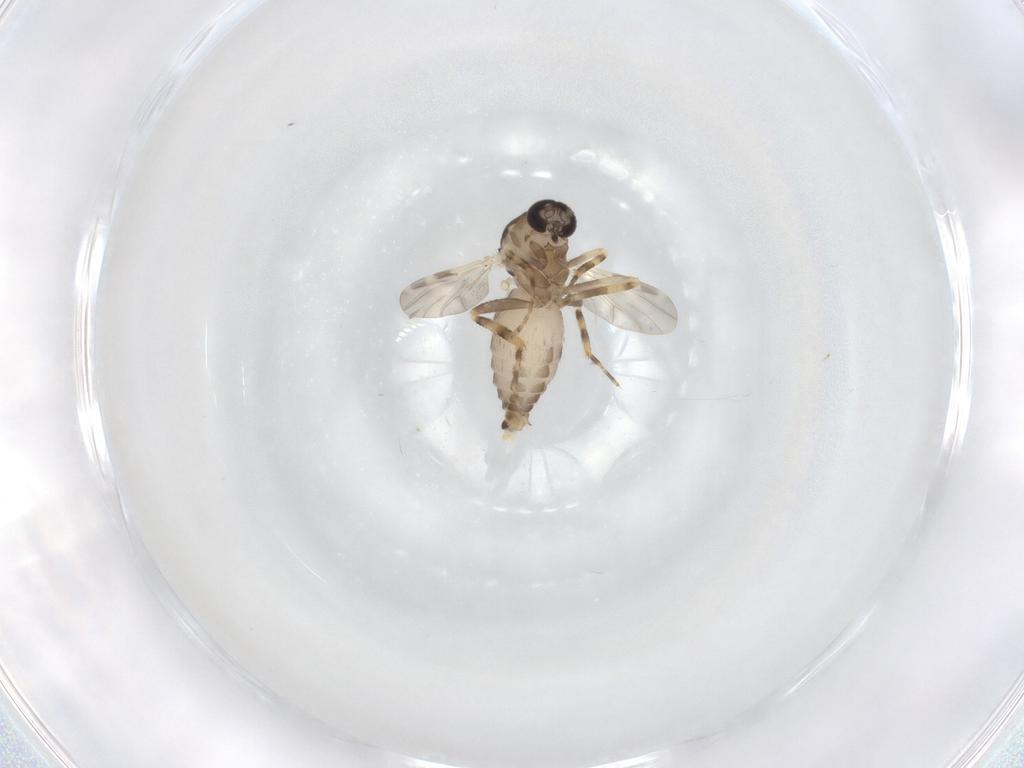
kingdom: Animalia
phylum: Arthropoda
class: Insecta
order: Diptera
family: Ceratopogonidae
